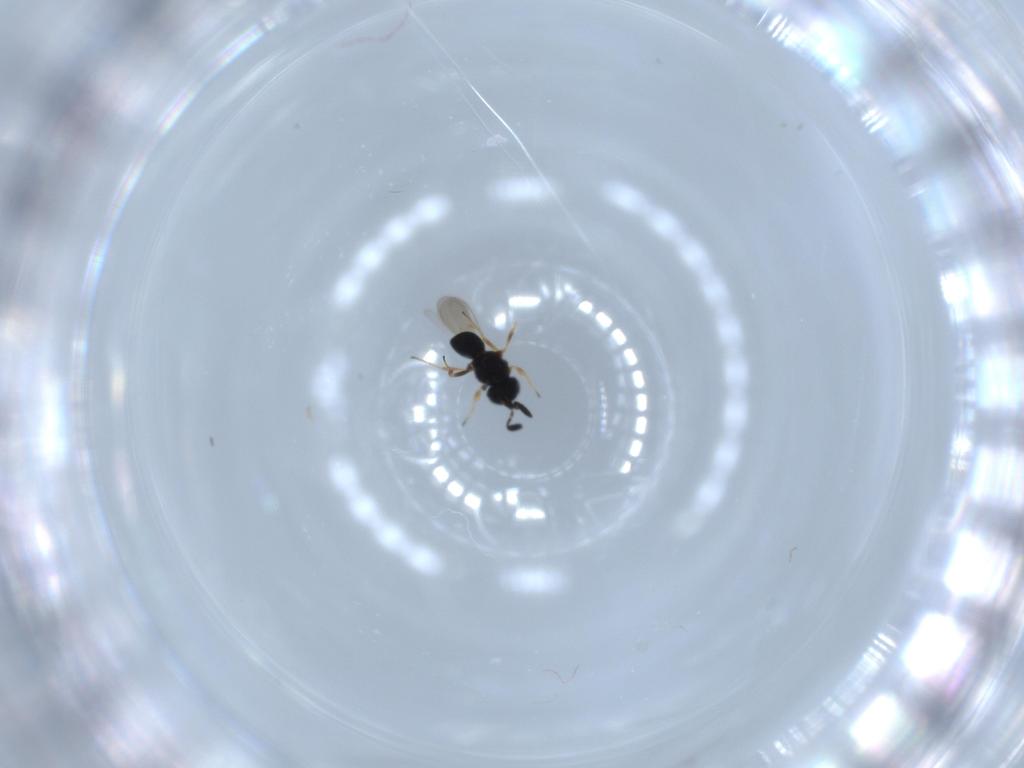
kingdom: Animalia
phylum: Arthropoda
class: Insecta
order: Hymenoptera
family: Scelionidae
